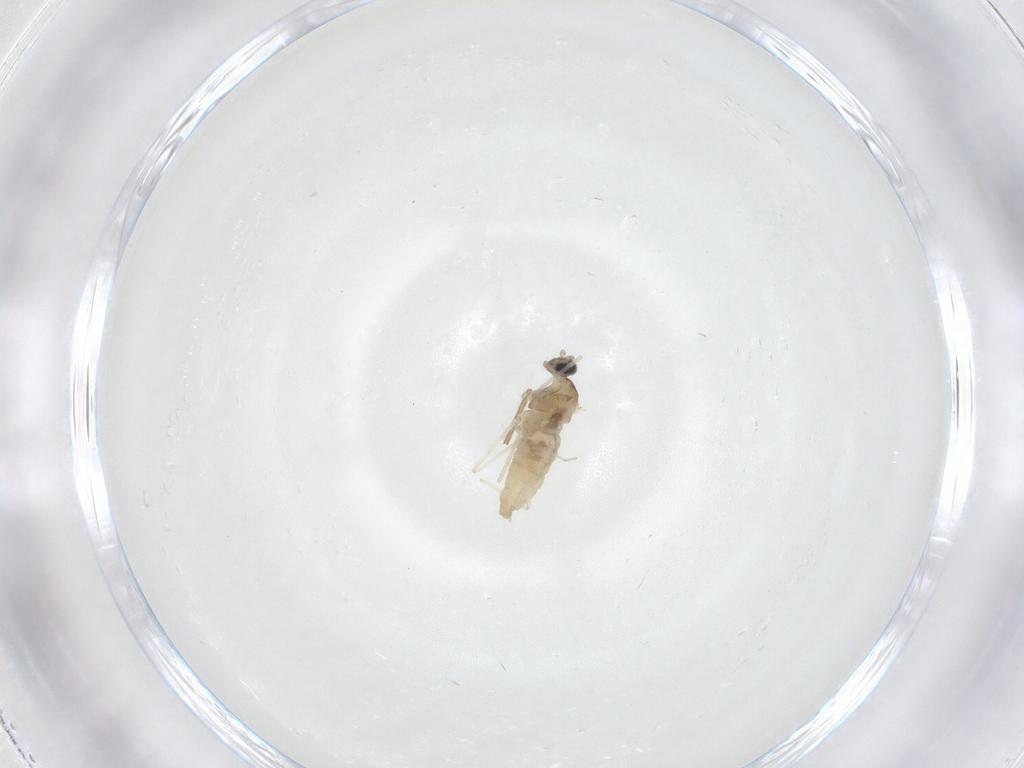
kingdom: Animalia
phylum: Arthropoda
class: Insecta
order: Diptera
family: Cecidomyiidae
